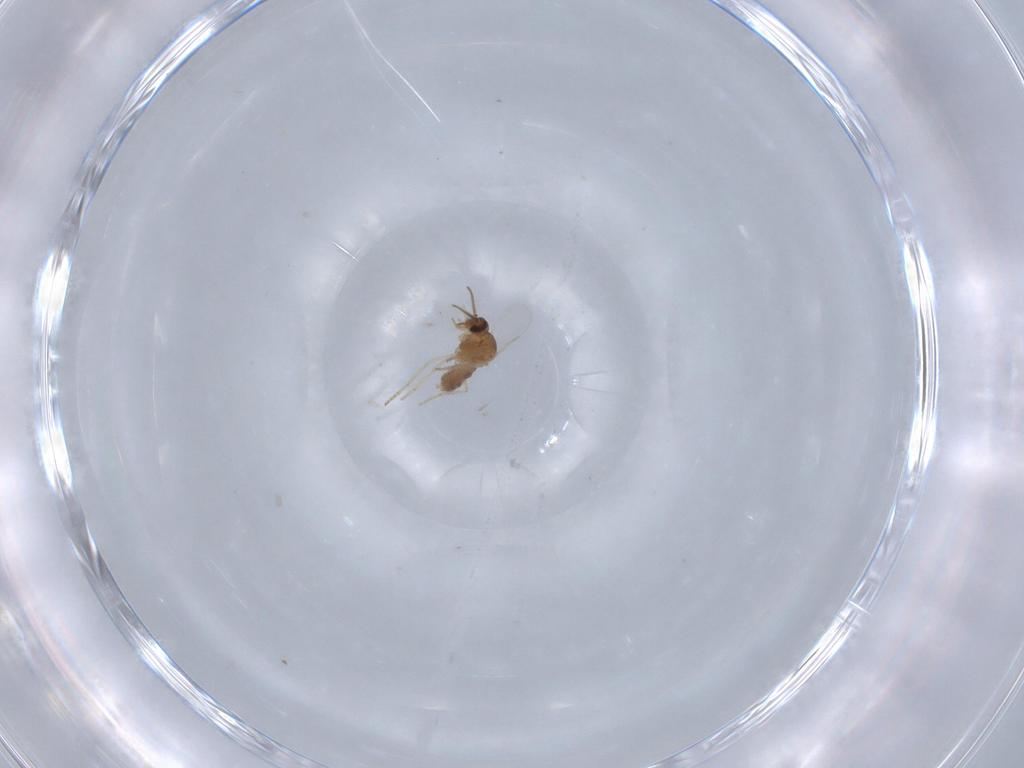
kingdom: Animalia
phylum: Arthropoda
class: Insecta
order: Diptera
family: Ceratopogonidae
